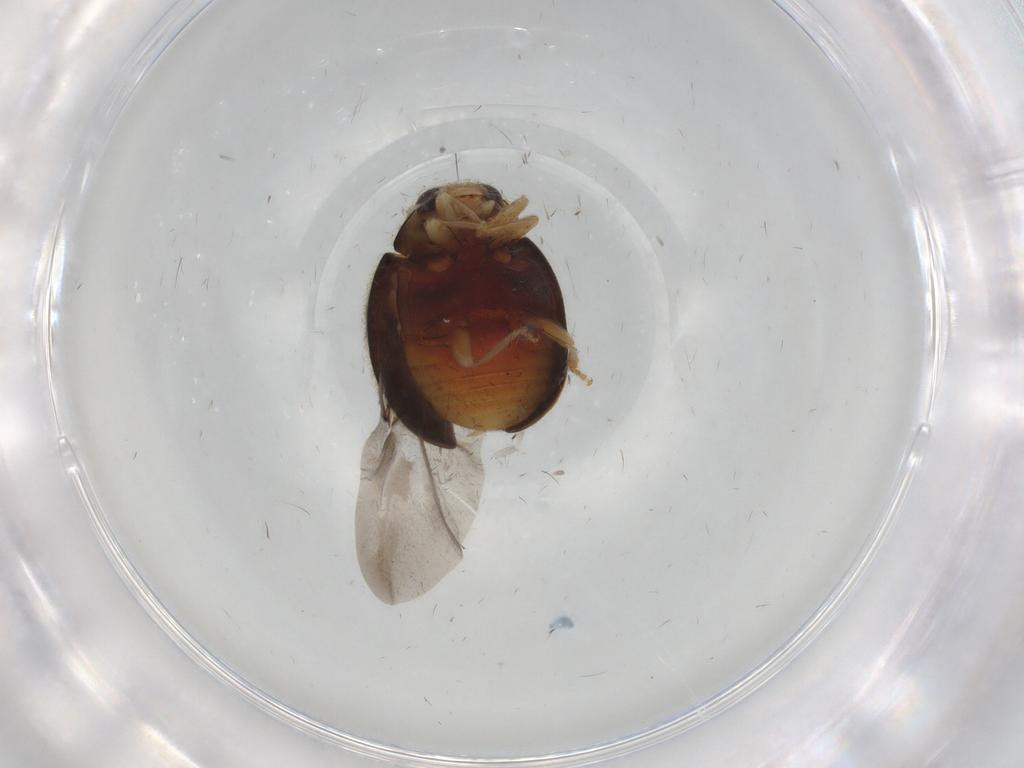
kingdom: Animalia
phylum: Arthropoda
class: Insecta
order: Coleoptera
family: Coccinellidae
